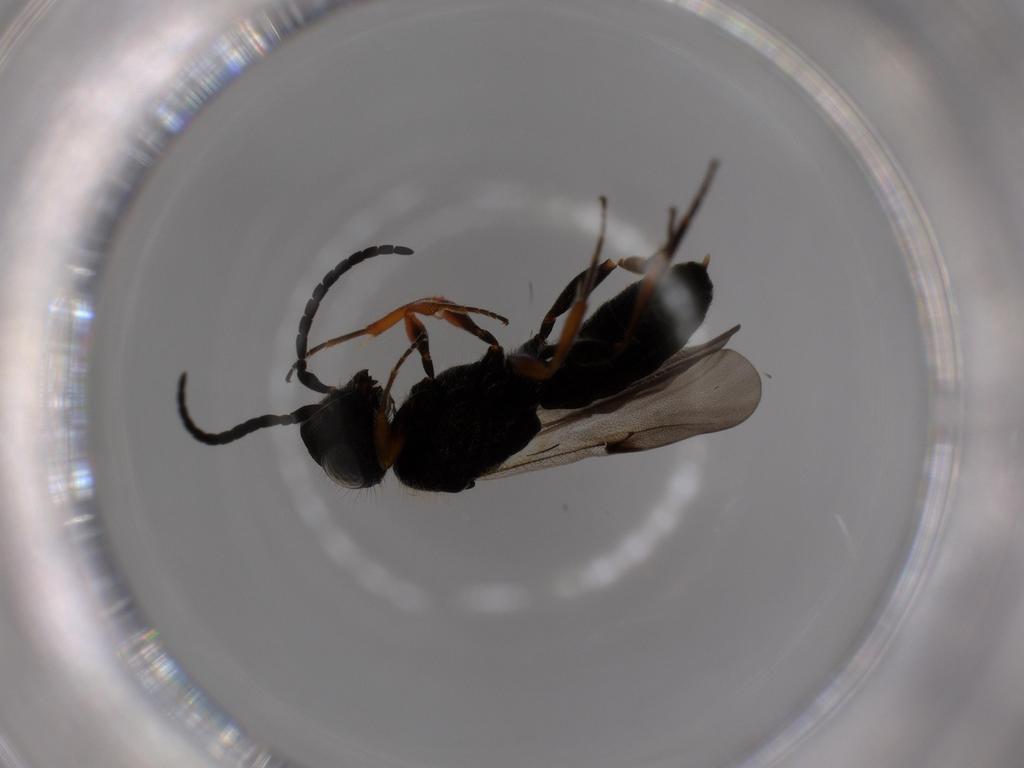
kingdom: Animalia
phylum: Arthropoda
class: Insecta
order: Hymenoptera
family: Scelionidae
